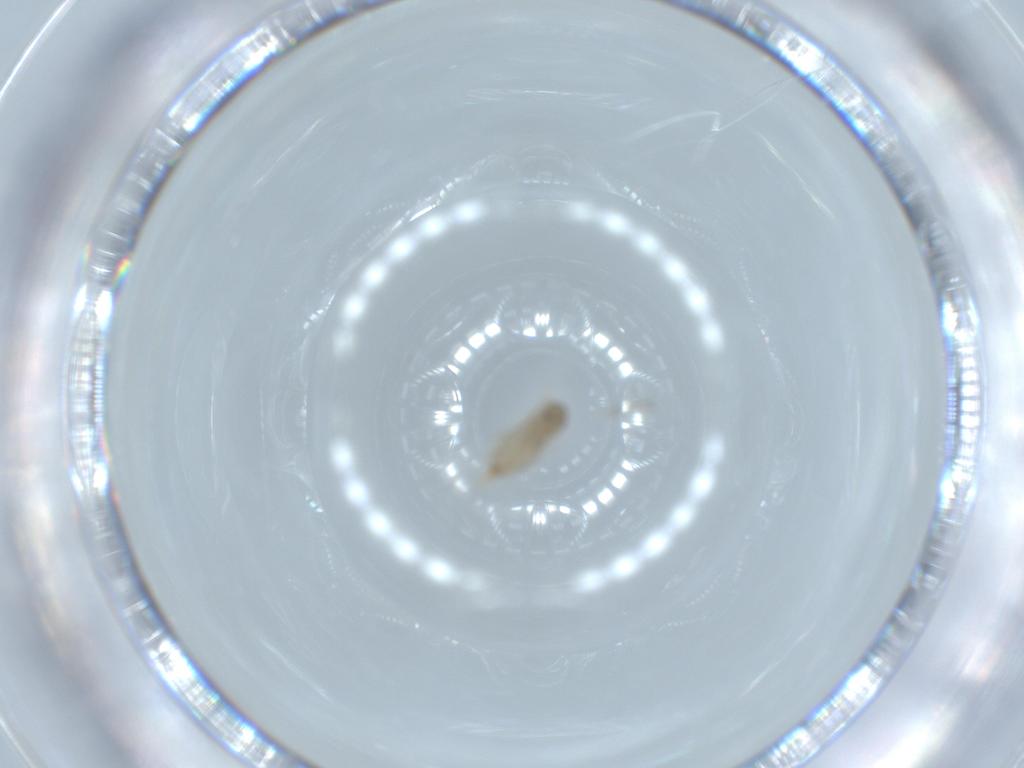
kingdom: Animalia
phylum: Arthropoda
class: Insecta
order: Diptera
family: Cecidomyiidae
